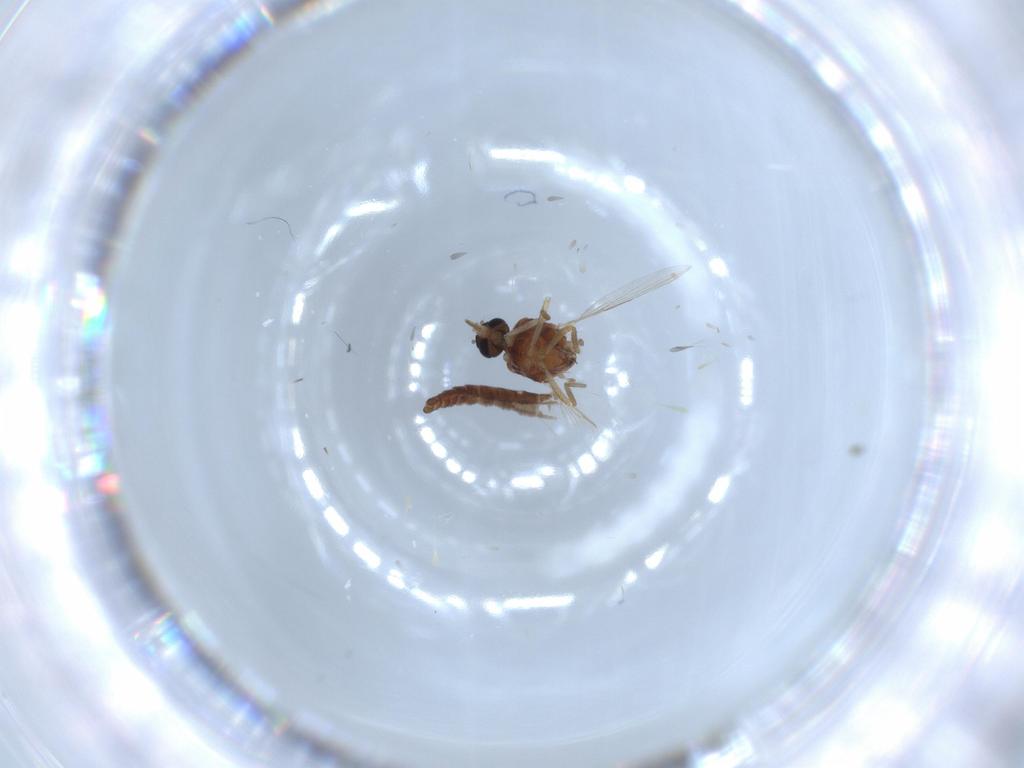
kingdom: Animalia
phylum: Arthropoda
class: Insecta
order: Diptera
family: Ceratopogonidae
